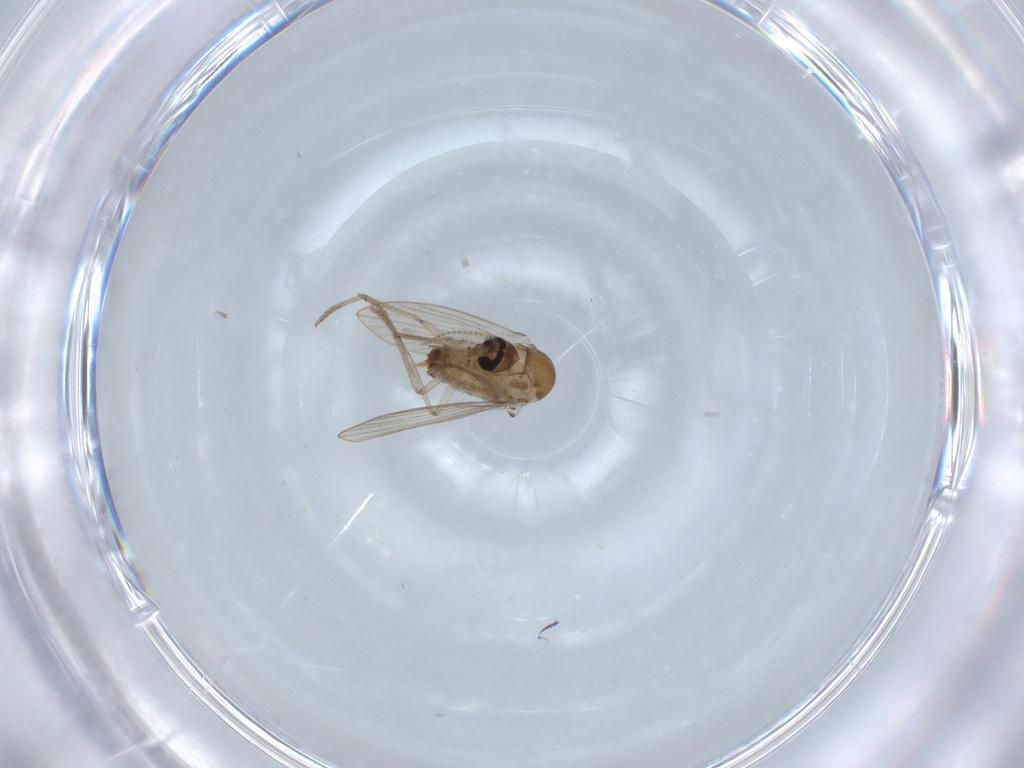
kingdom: Animalia
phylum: Arthropoda
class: Insecta
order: Diptera
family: Psychodidae
